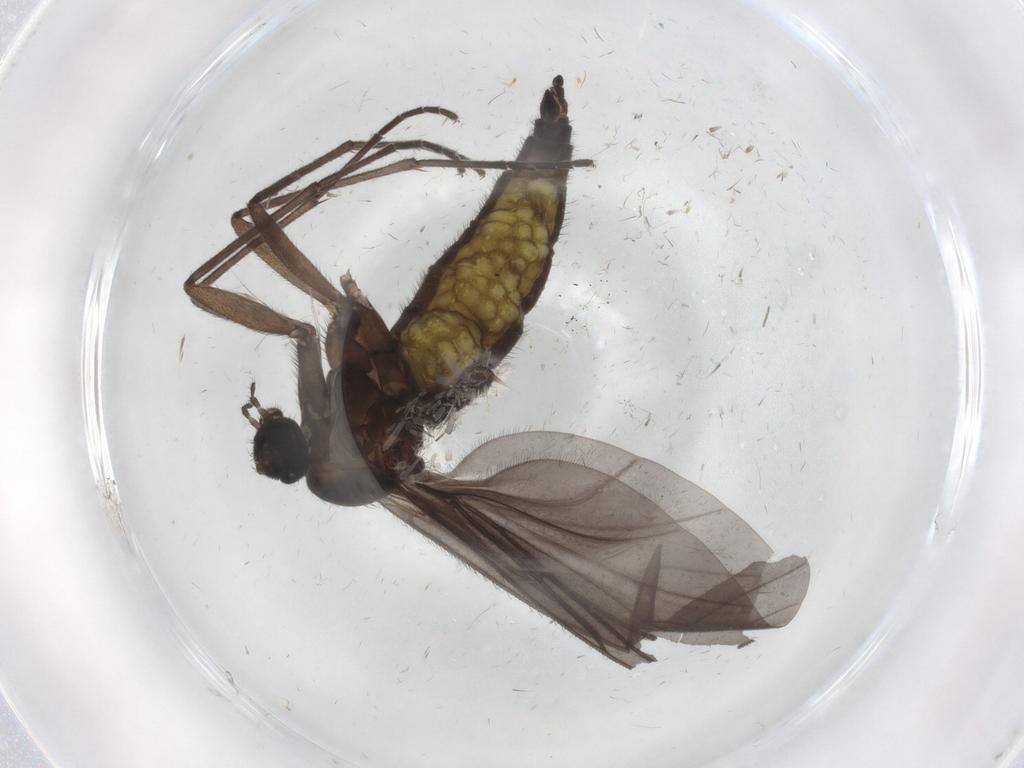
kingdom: Animalia
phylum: Arthropoda
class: Insecta
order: Diptera
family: Sciaridae
